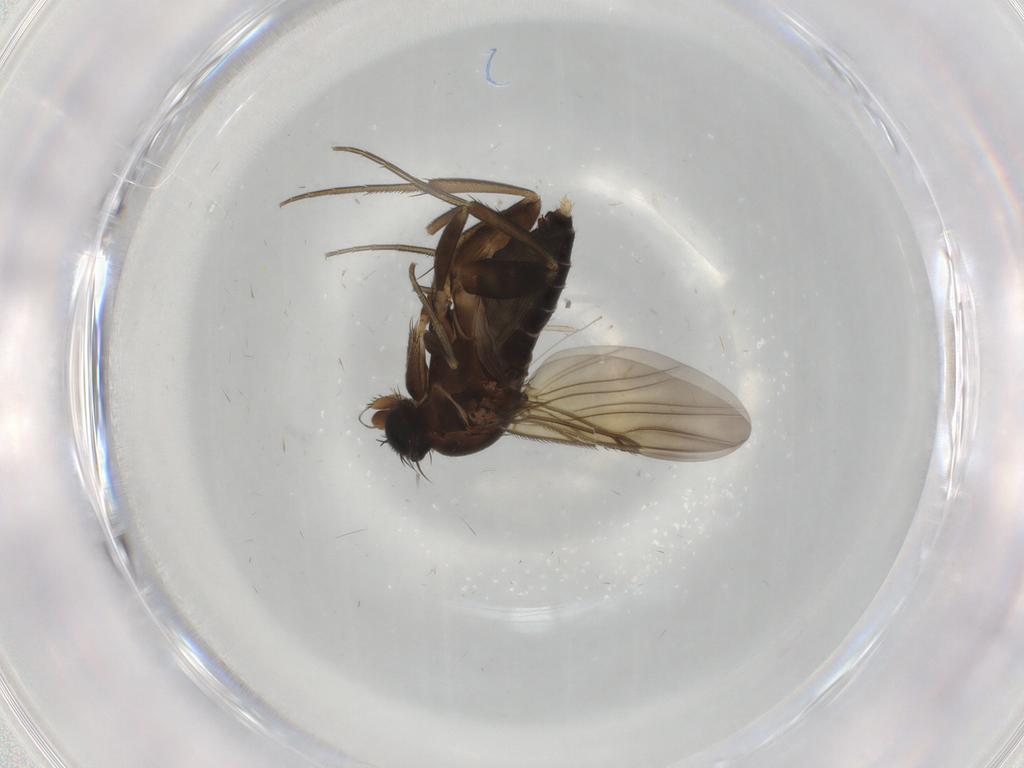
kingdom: Animalia
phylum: Arthropoda
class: Insecta
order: Diptera
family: Phoridae
